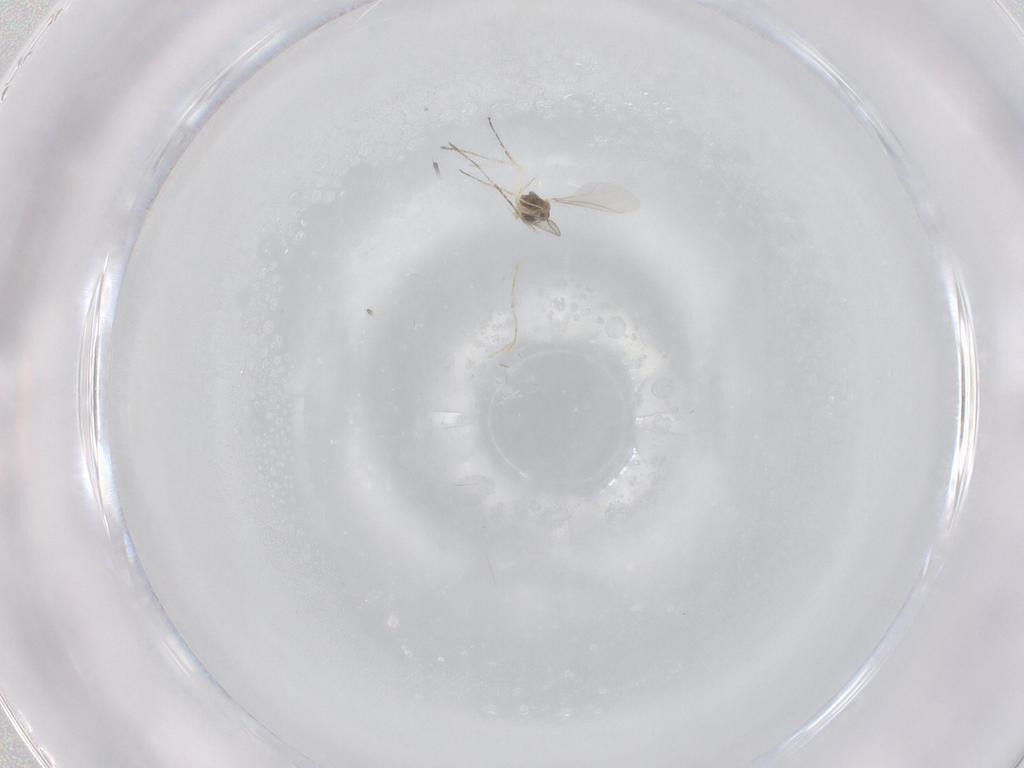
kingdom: Animalia
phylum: Arthropoda
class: Insecta
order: Diptera
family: Cecidomyiidae
